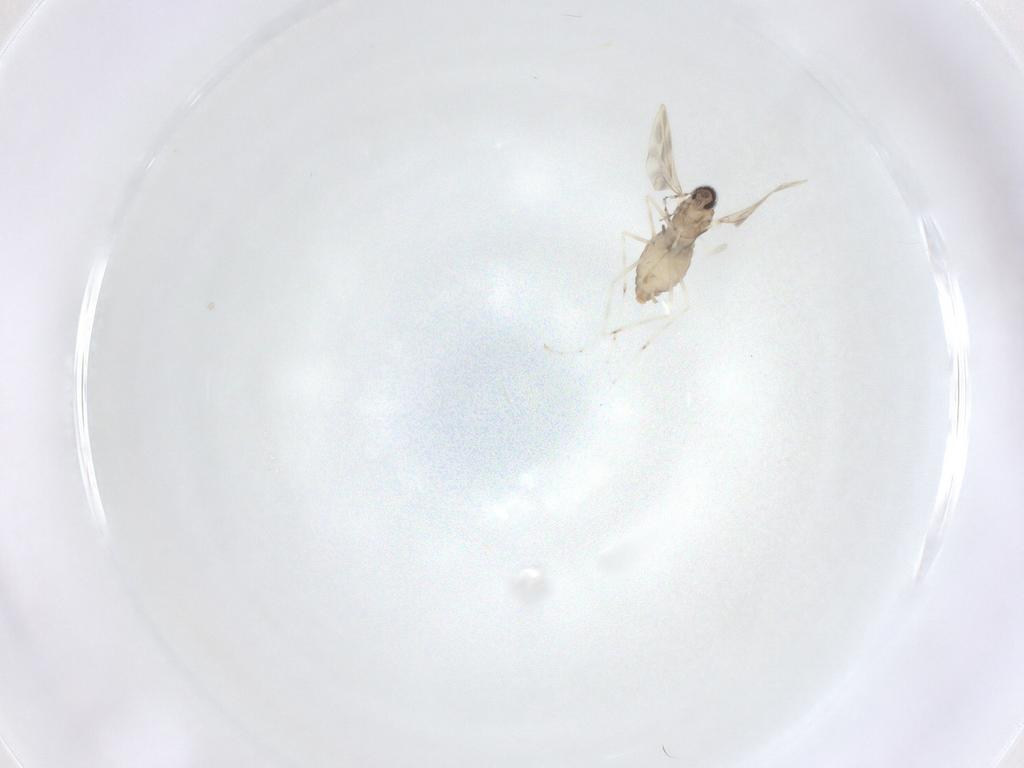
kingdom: Animalia
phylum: Arthropoda
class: Insecta
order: Diptera
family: Cecidomyiidae
